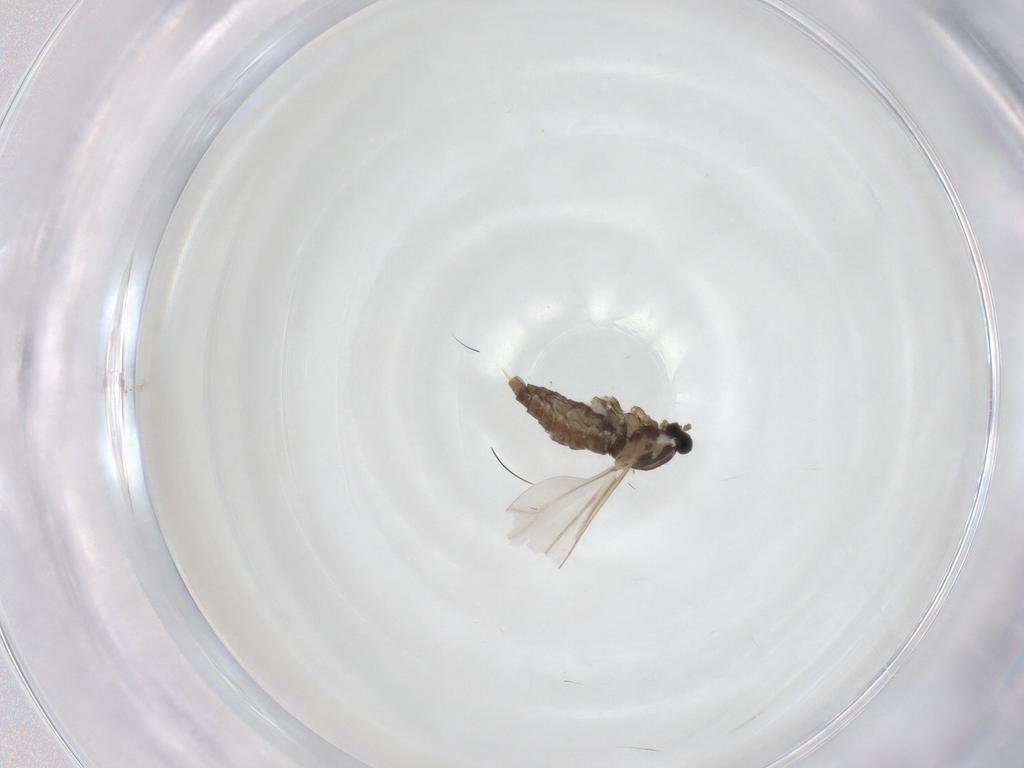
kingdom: Animalia
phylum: Arthropoda
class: Insecta
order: Diptera
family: Cecidomyiidae
